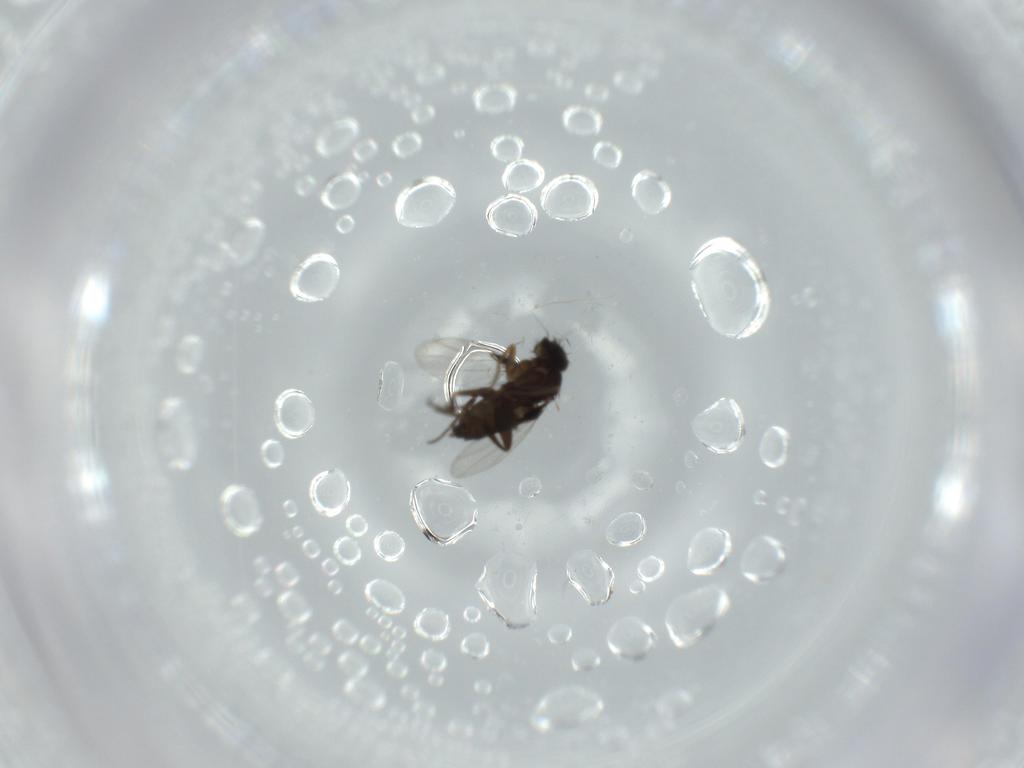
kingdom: Animalia
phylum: Arthropoda
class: Insecta
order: Diptera
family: Phoridae
